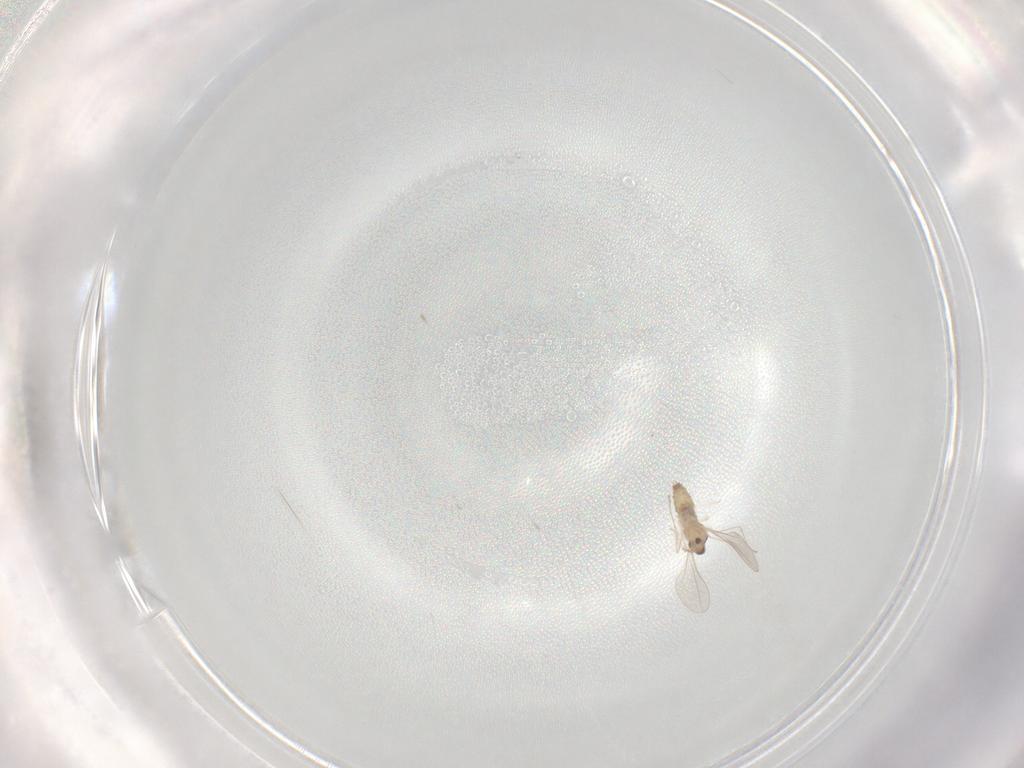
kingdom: Animalia
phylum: Arthropoda
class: Insecta
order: Diptera
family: Cecidomyiidae
